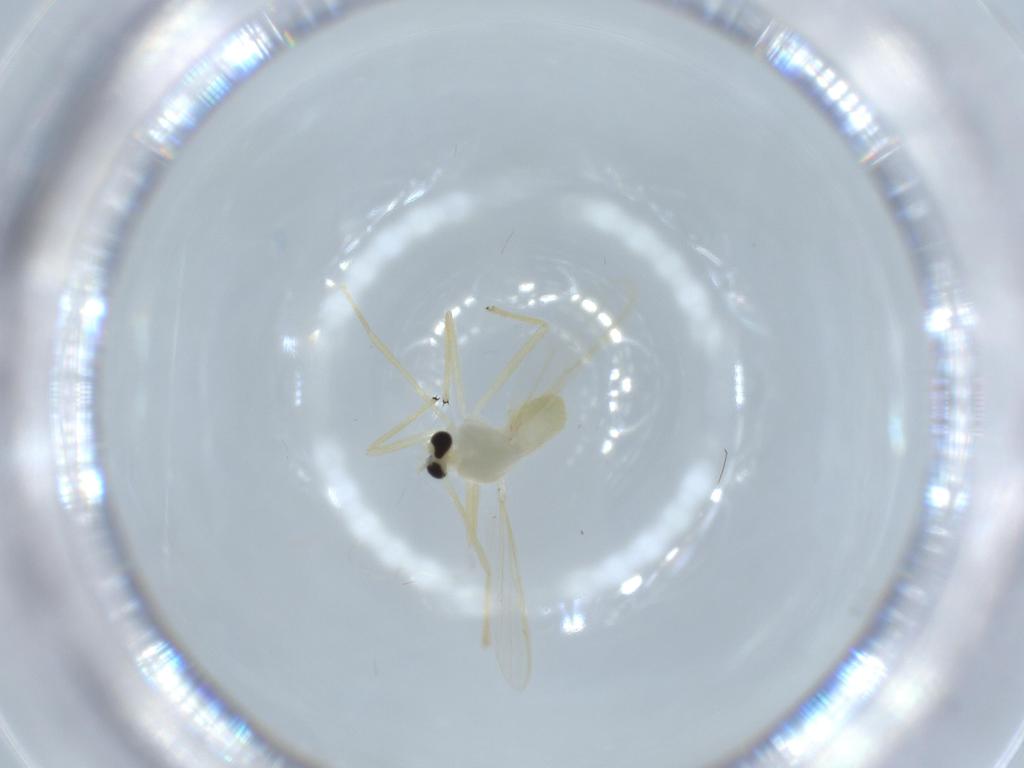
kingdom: Animalia
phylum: Arthropoda
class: Insecta
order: Diptera
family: Chironomidae
